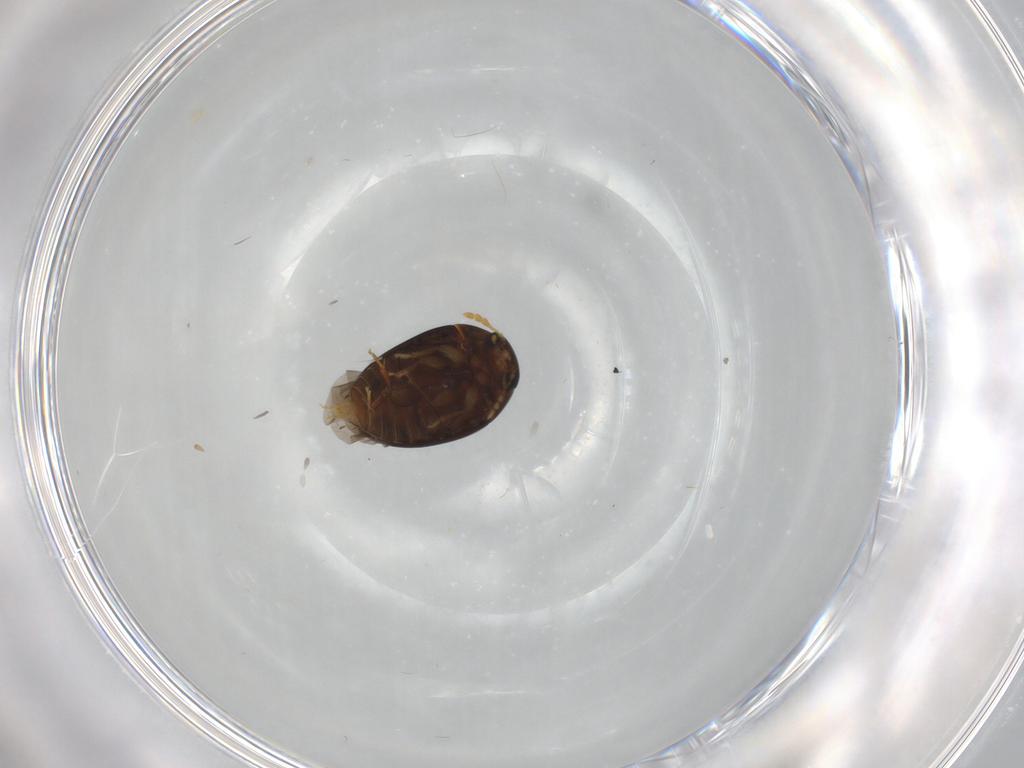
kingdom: Animalia
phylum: Arthropoda
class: Insecta
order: Coleoptera
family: Chrysomelidae
